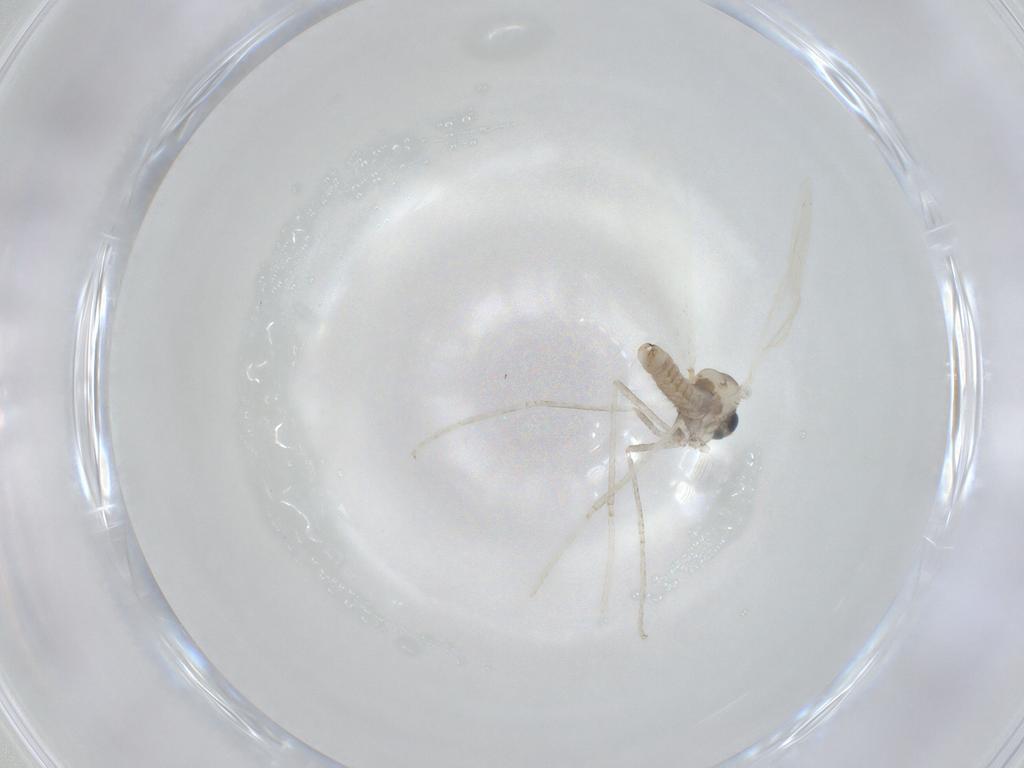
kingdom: Animalia
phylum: Arthropoda
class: Insecta
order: Diptera
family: Cecidomyiidae
